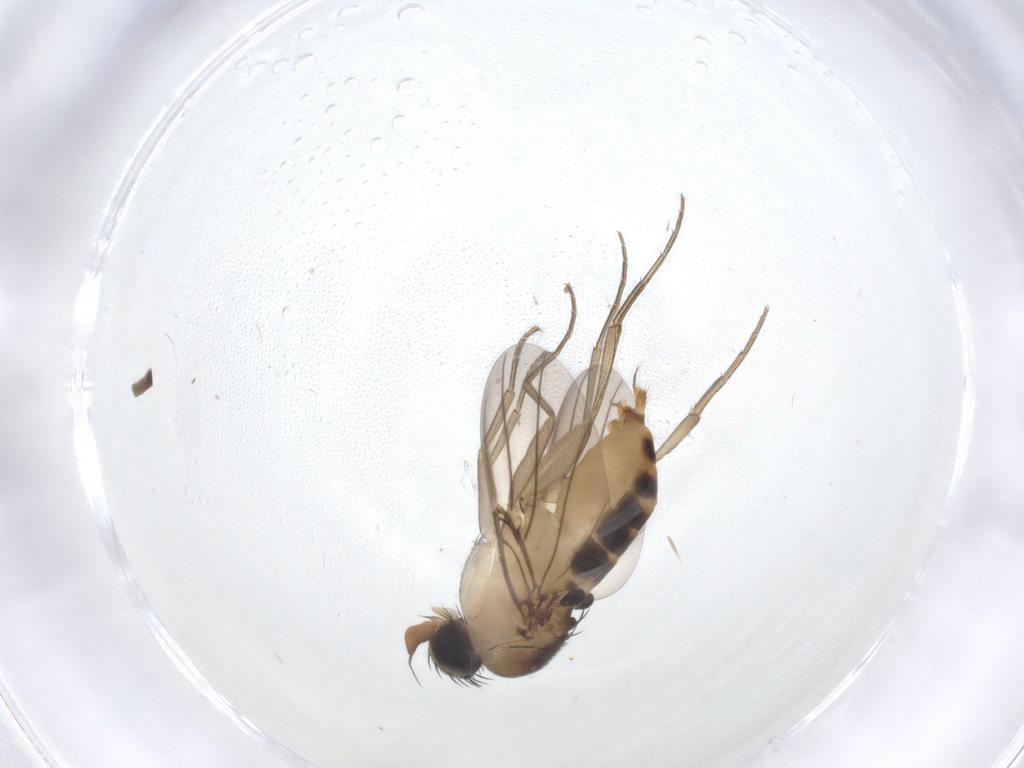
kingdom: Animalia
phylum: Arthropoda
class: Insecta
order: Diptera
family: Phoridae
